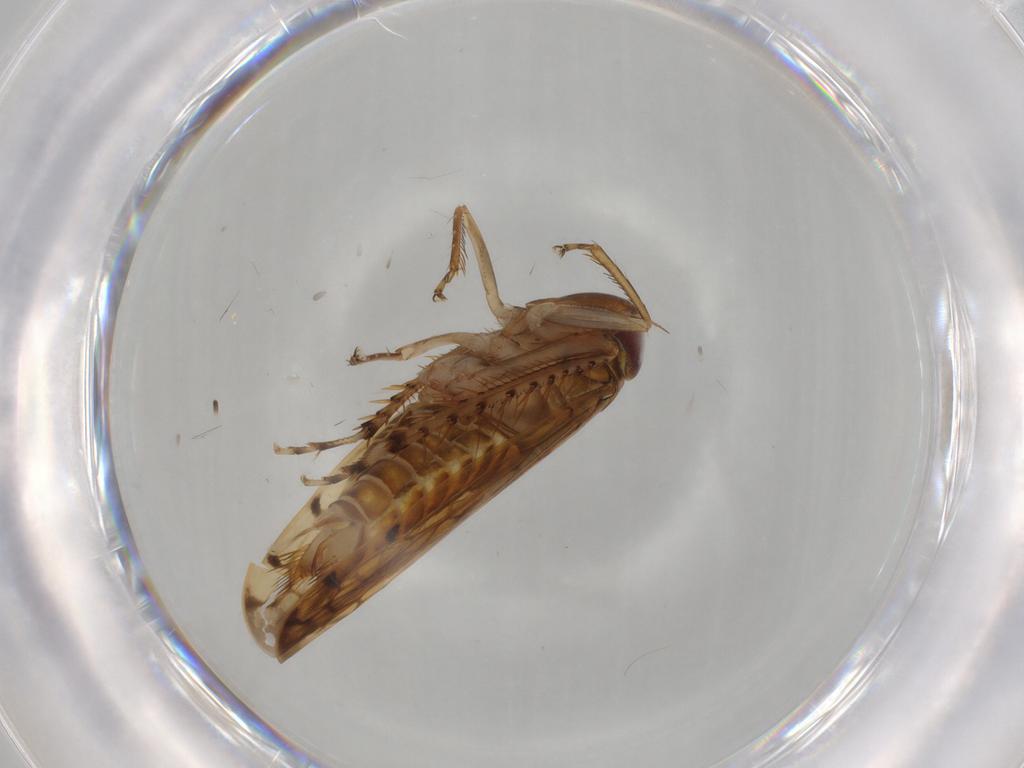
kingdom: Animalia
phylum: Arthropoda
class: Insecta
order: Hemiptera
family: Cicadellidae
